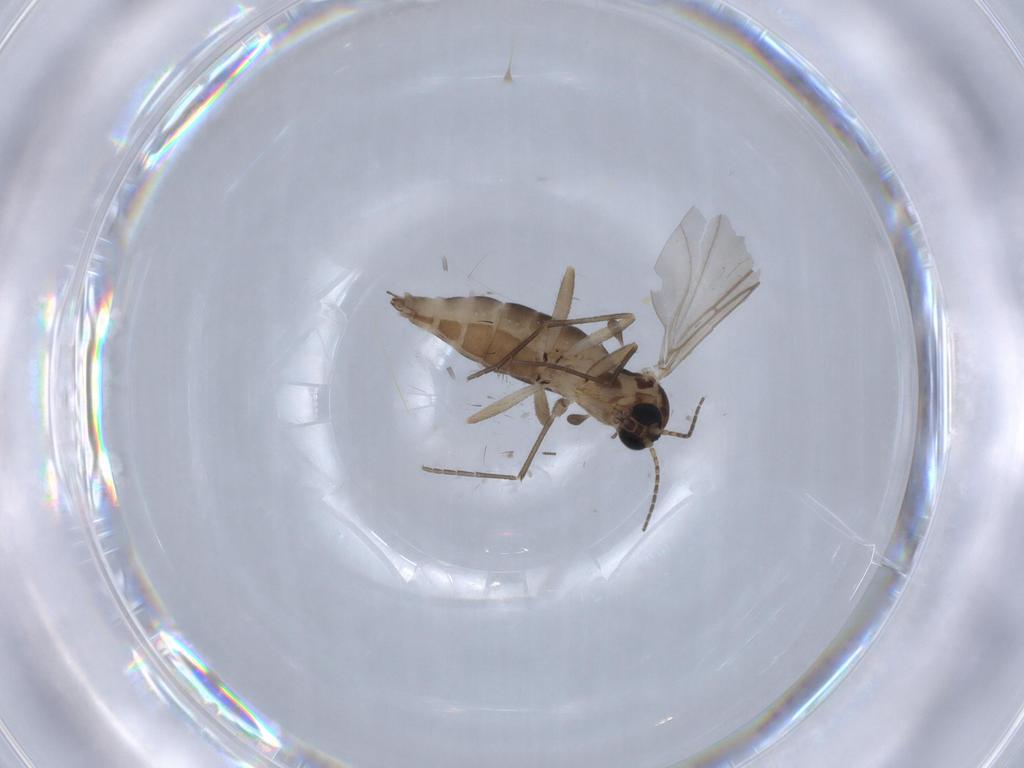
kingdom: Animalia
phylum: Arthropoda
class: Insecta
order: Diptera
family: Sciaridae
